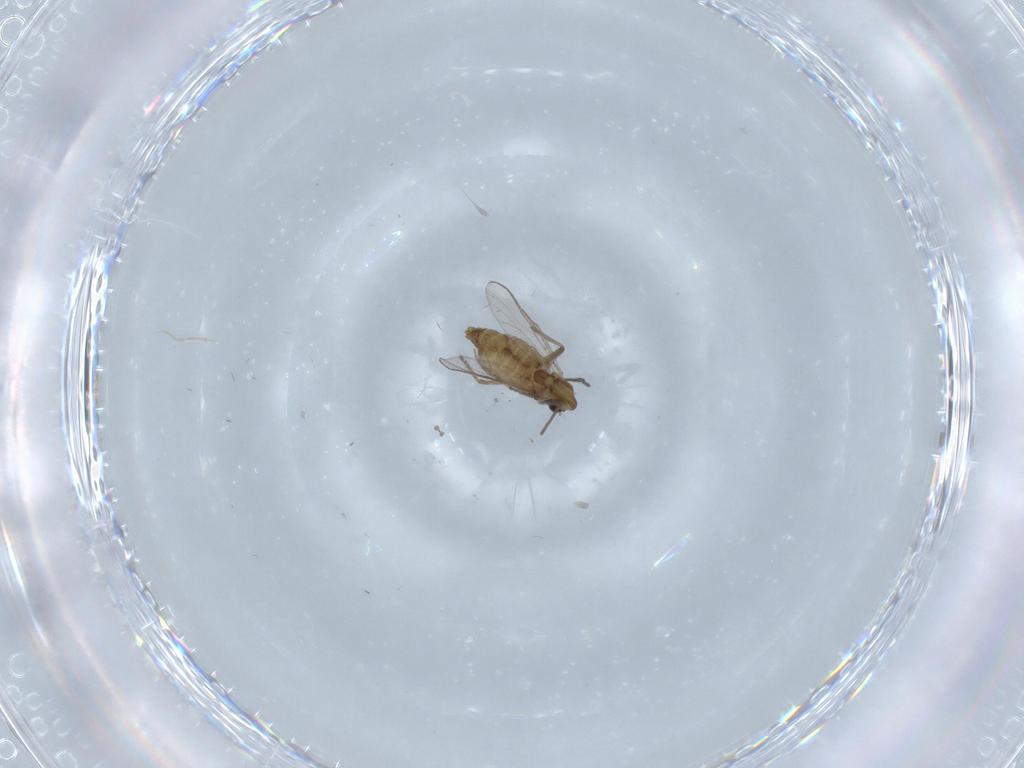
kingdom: Animalia
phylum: Arthropoda
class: Insecta
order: Diptera
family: Chironomidae
